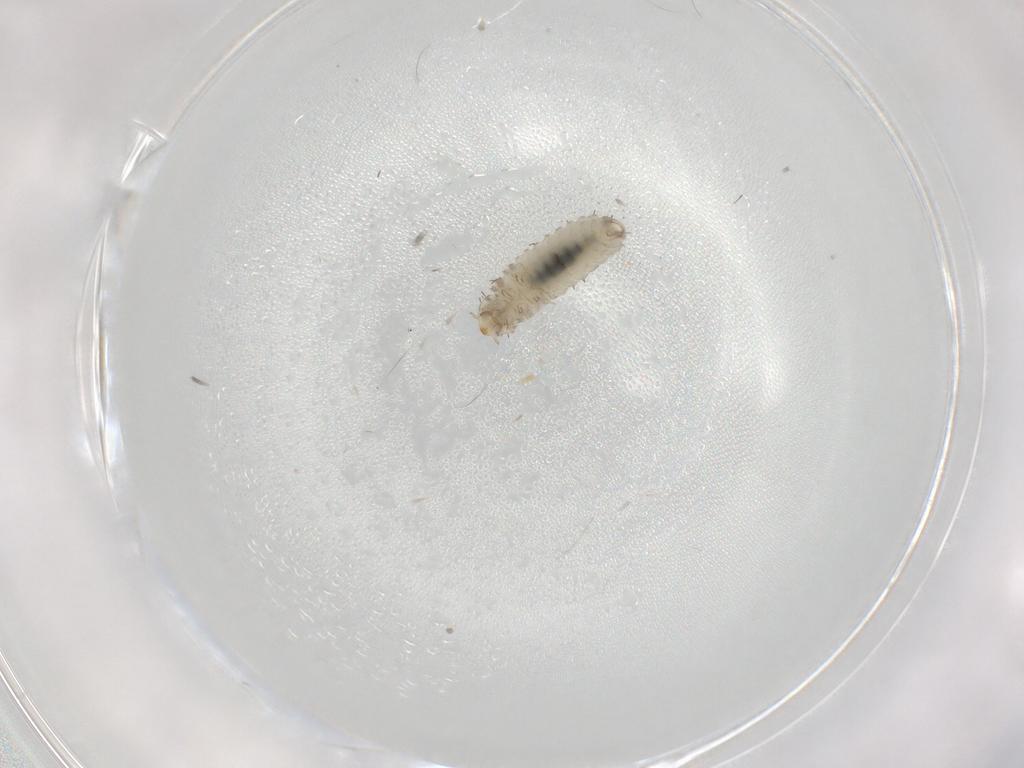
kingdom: Animalia
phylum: Arthropoda
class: Insecta
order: Coleoptera
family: Corylophidae
